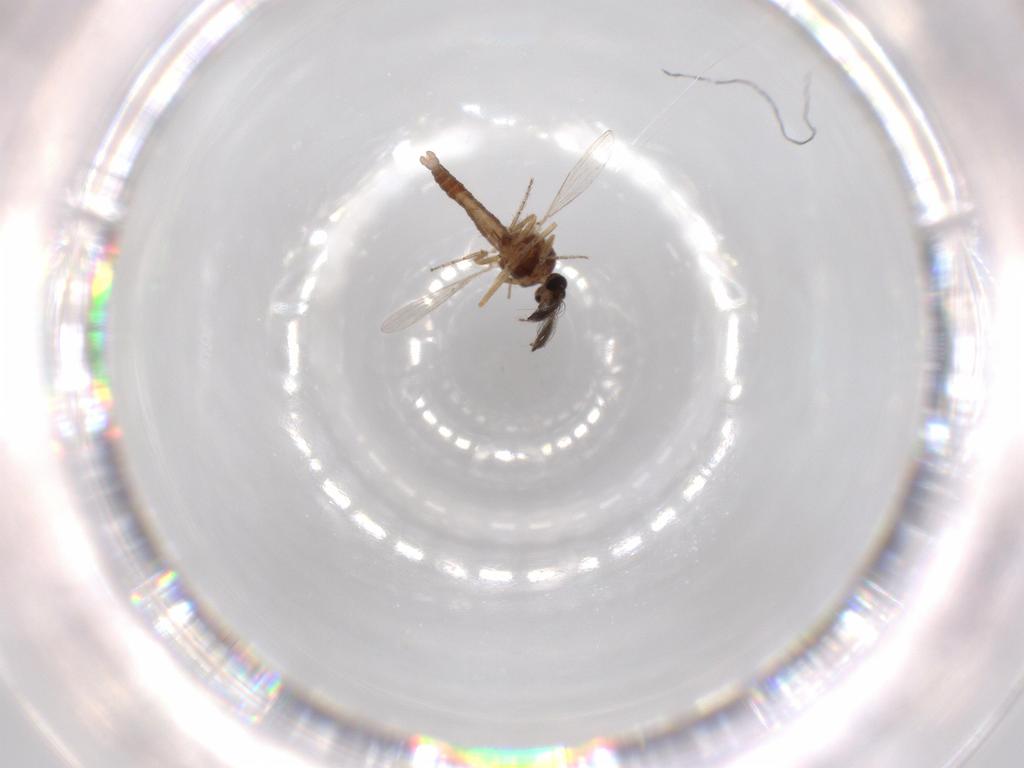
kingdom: Animalia
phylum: Arthropoda
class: Insecta
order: Diptera
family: Ceratopogonidae
